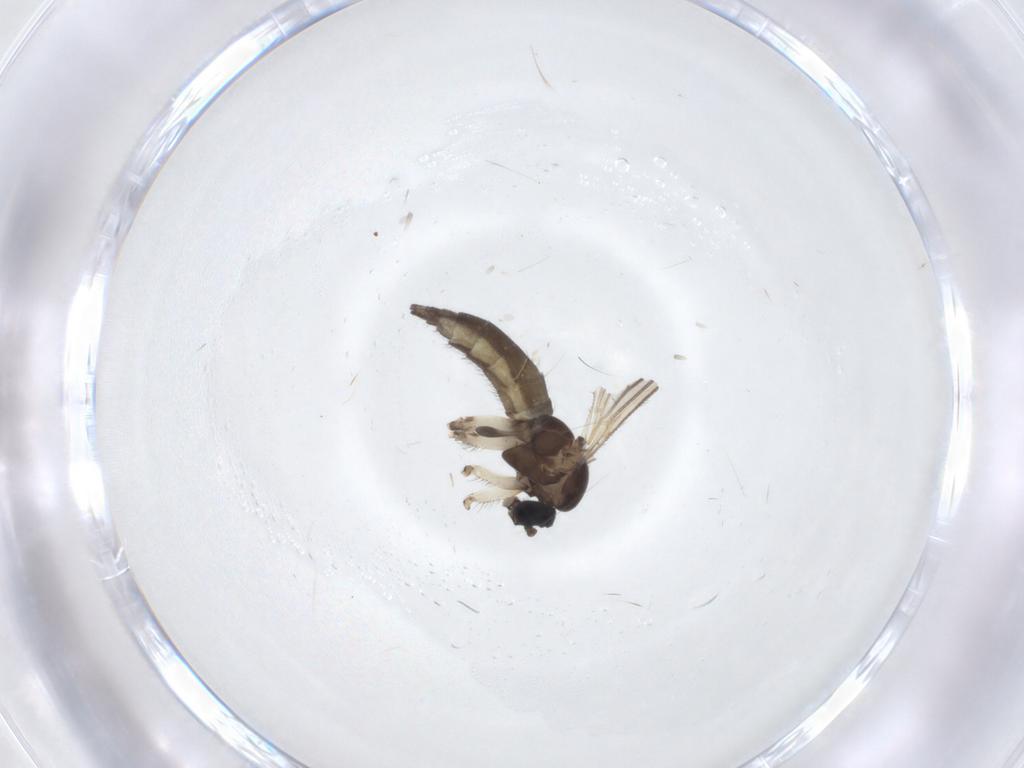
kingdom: Animalia
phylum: Arthropoda
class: Insecta
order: Diptera
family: Sciaridae
